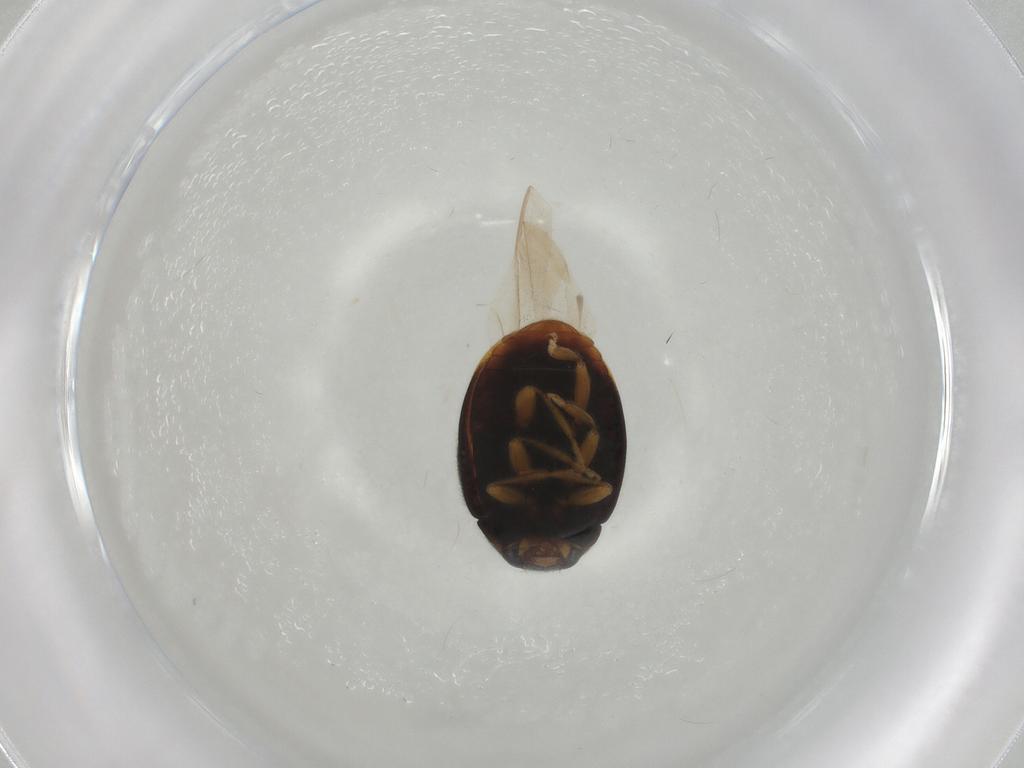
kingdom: Animalia
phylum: Arthropoda
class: Insecta
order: Coleoptera
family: Coccinellidae
